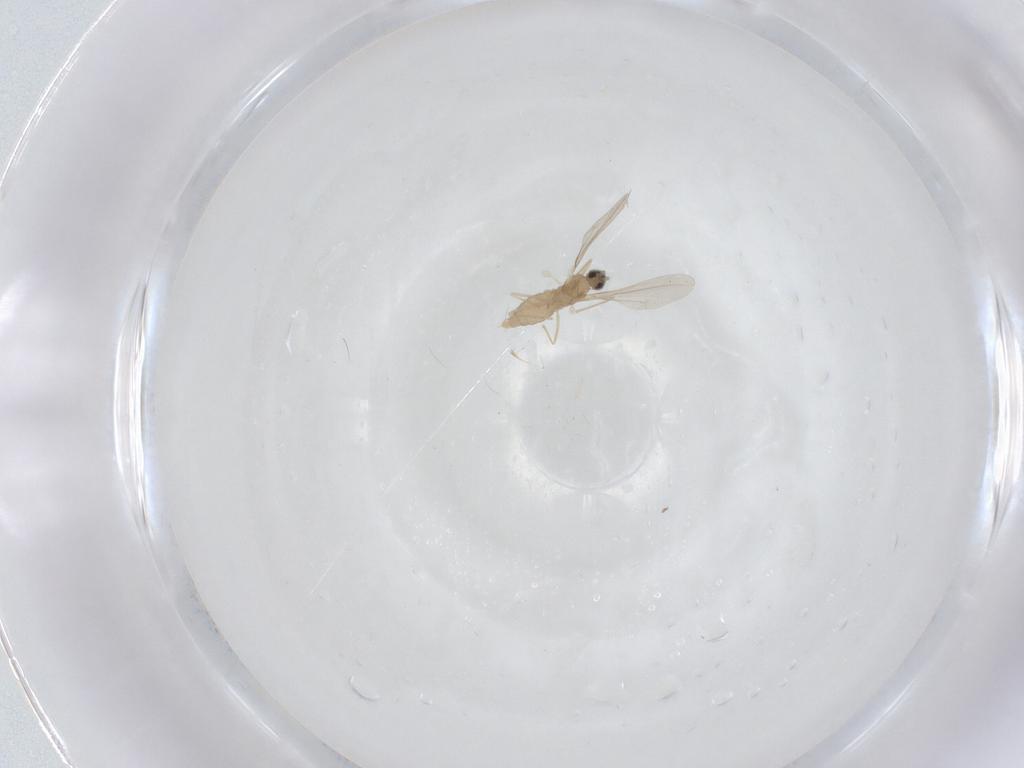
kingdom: Animalia
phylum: Arthropoda
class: Insecta
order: Diptera
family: Cecidomyiidae
